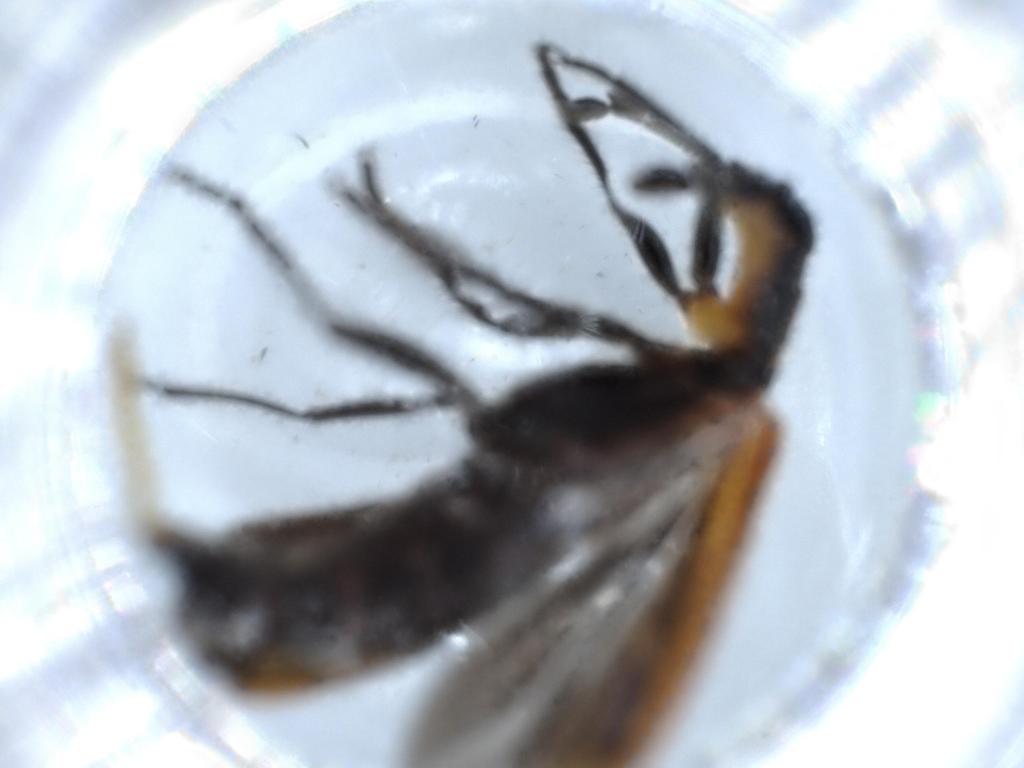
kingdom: Animalia
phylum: Arthropoda
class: Insecta
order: Coleoptera
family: Cleridae
